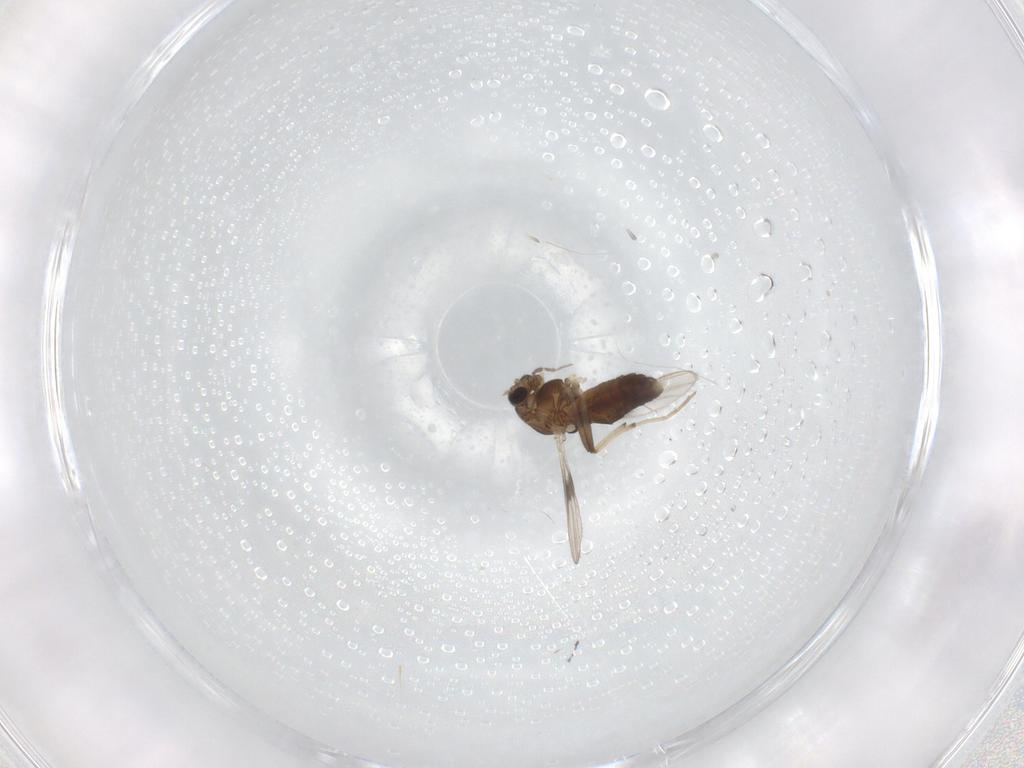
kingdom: Animalia
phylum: Arthropoda
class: Insecta
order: Diptera
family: Chironomidae
